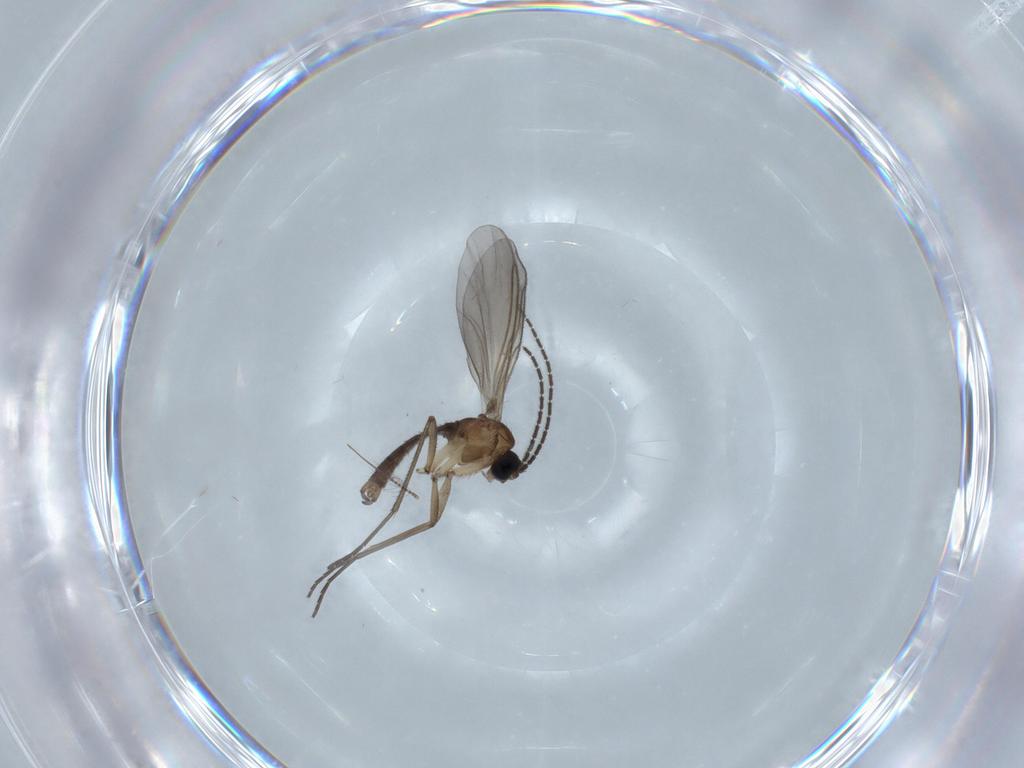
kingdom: Animalia
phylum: Arthropoda
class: Insecta
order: Diptera
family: Sciaridae
